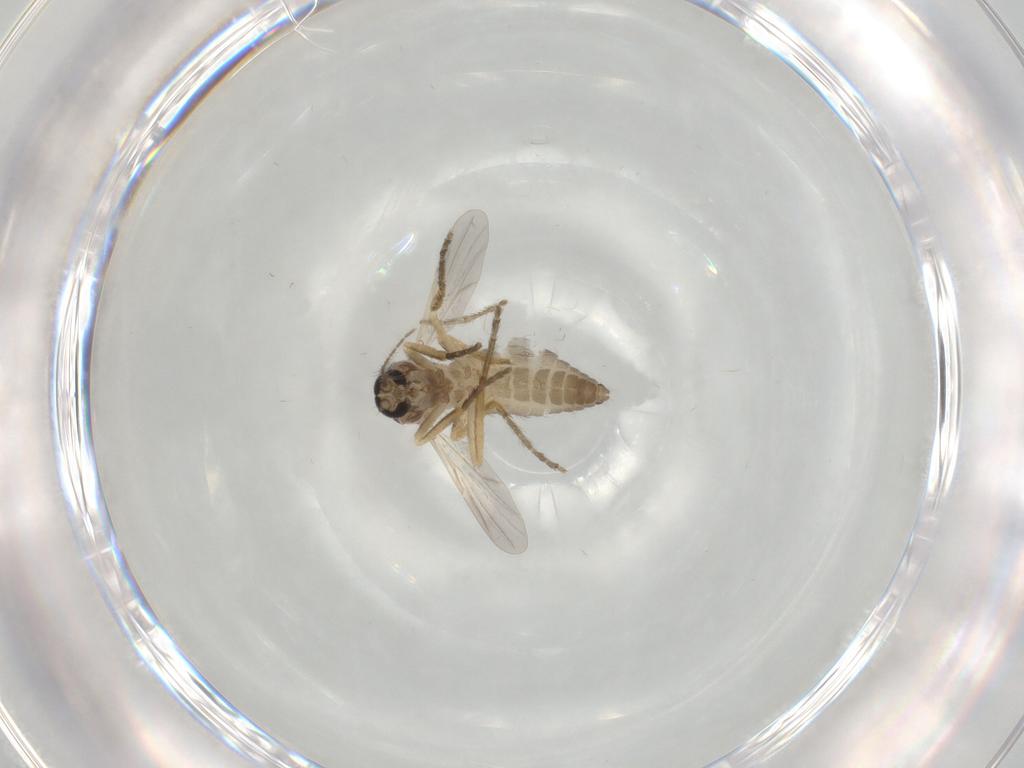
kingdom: Animalia
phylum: Arthropoda
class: Insecta
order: Diptera
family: Ceratopogonidae
